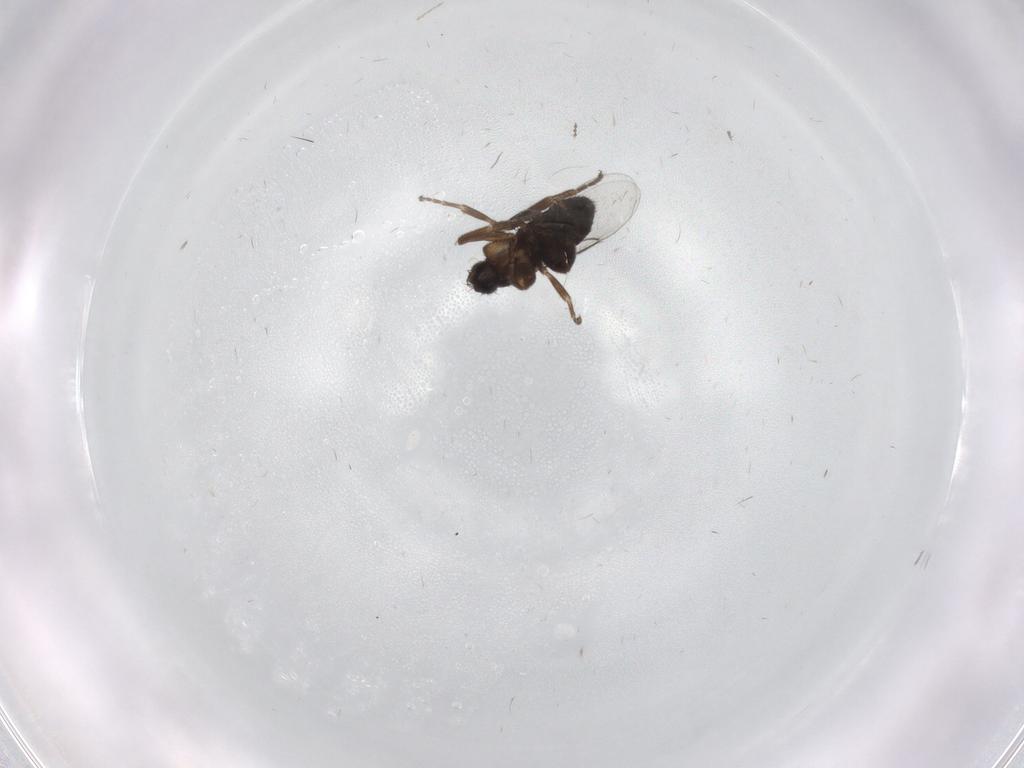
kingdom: Animalia
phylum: Arthropoda
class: Insecta
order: Diptera
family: Phoridae
